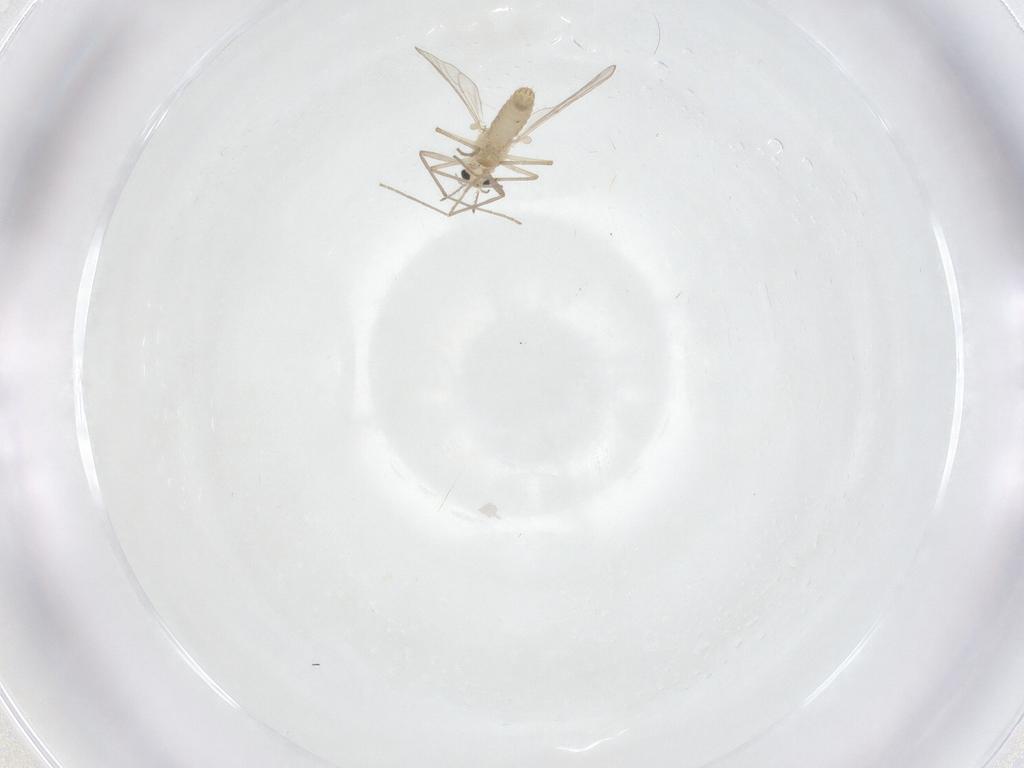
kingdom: Animalia
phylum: Arthropoda
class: Insecta
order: Diptera
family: Chironomidae
